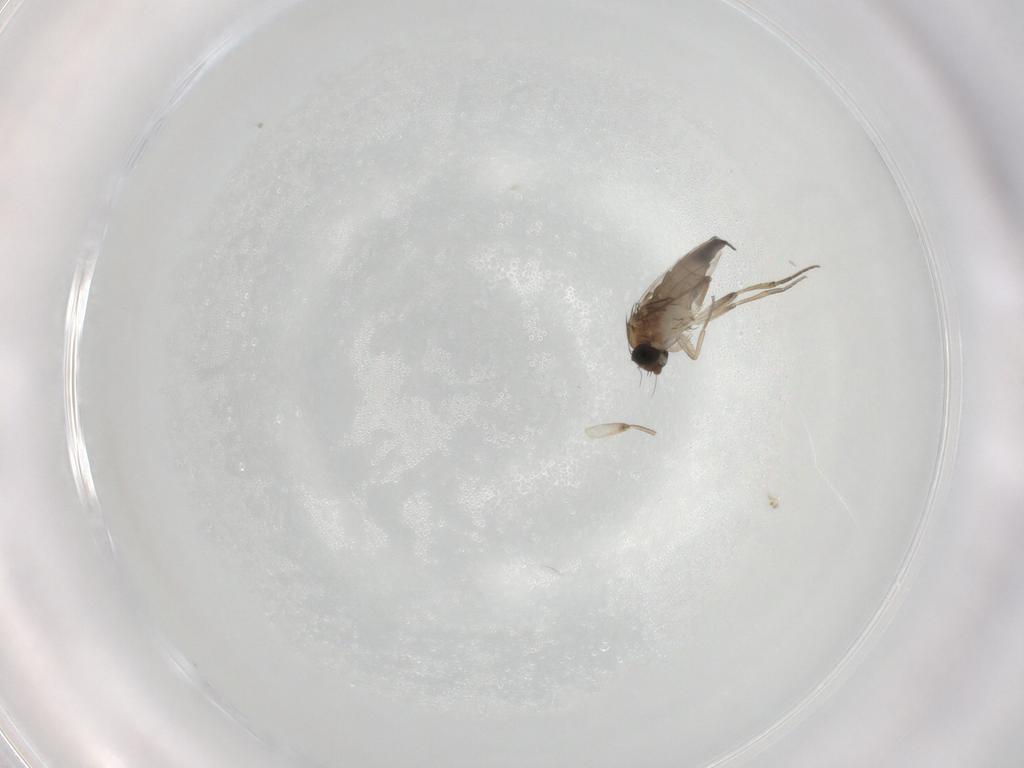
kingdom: Animalia
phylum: Arthropoda
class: Insecta
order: Diptera
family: Phoridae
